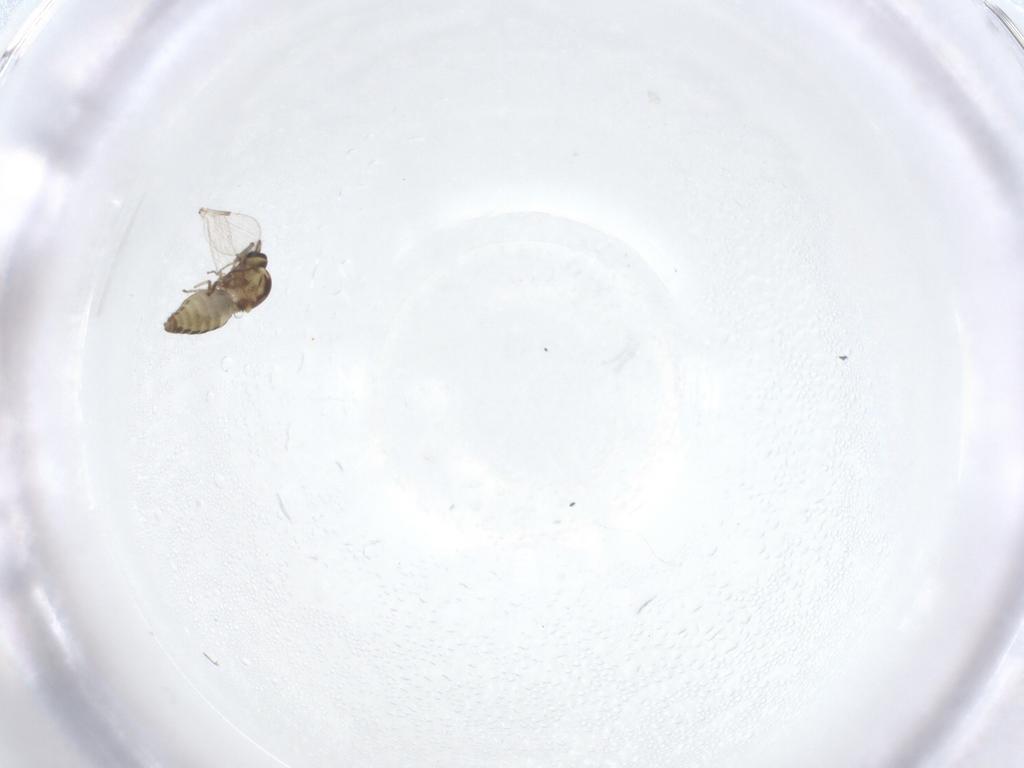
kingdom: Animalia
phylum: Arthropoda
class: Insecta
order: Diptera
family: Ceratopogonidae
